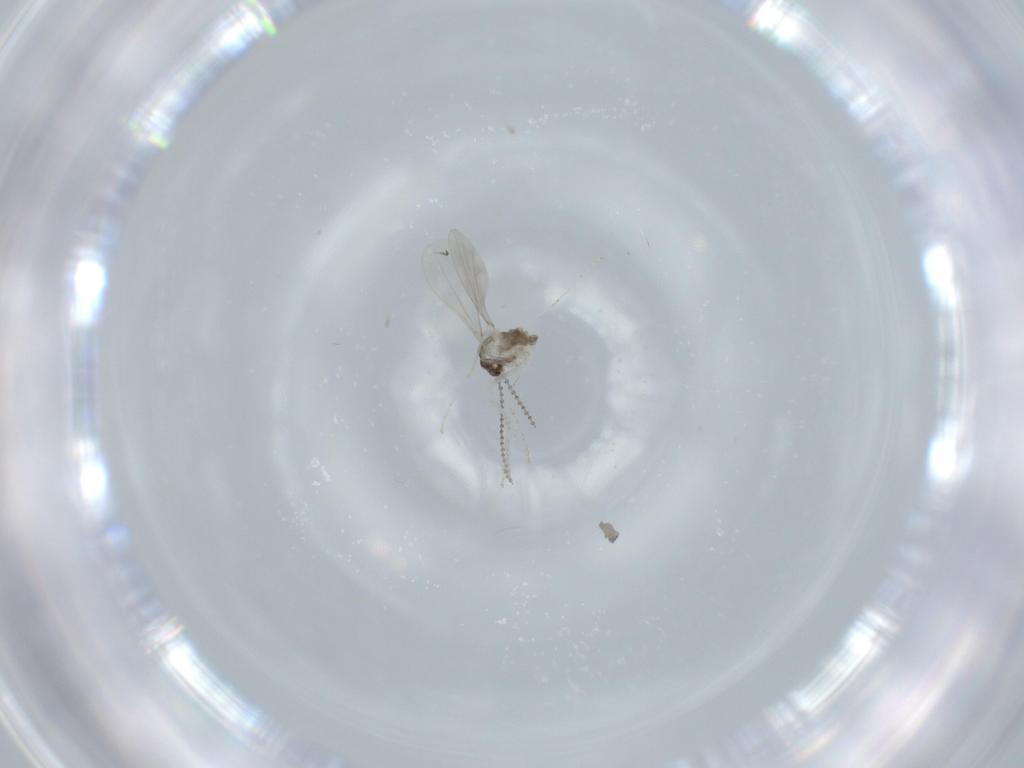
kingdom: Animalia
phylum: Arthropoda
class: Insecta
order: Diptera
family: Cecidomyiidae
